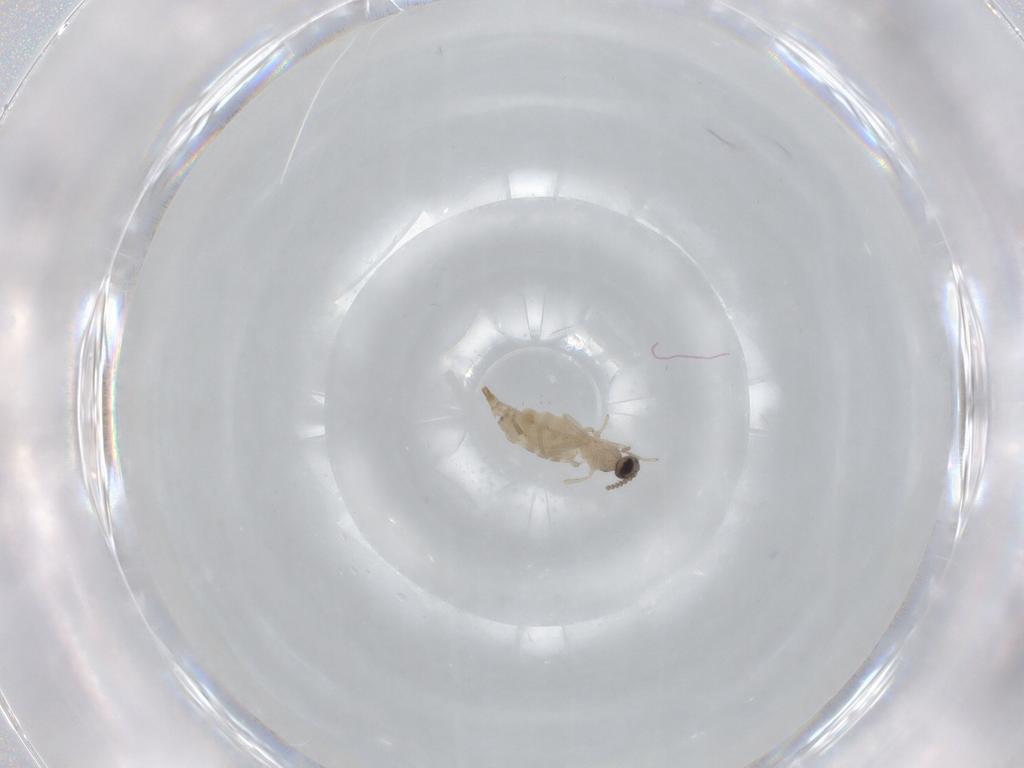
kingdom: Animalia
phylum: Arthropoda
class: Insecta
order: Diptera
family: Cecidomyiidae
